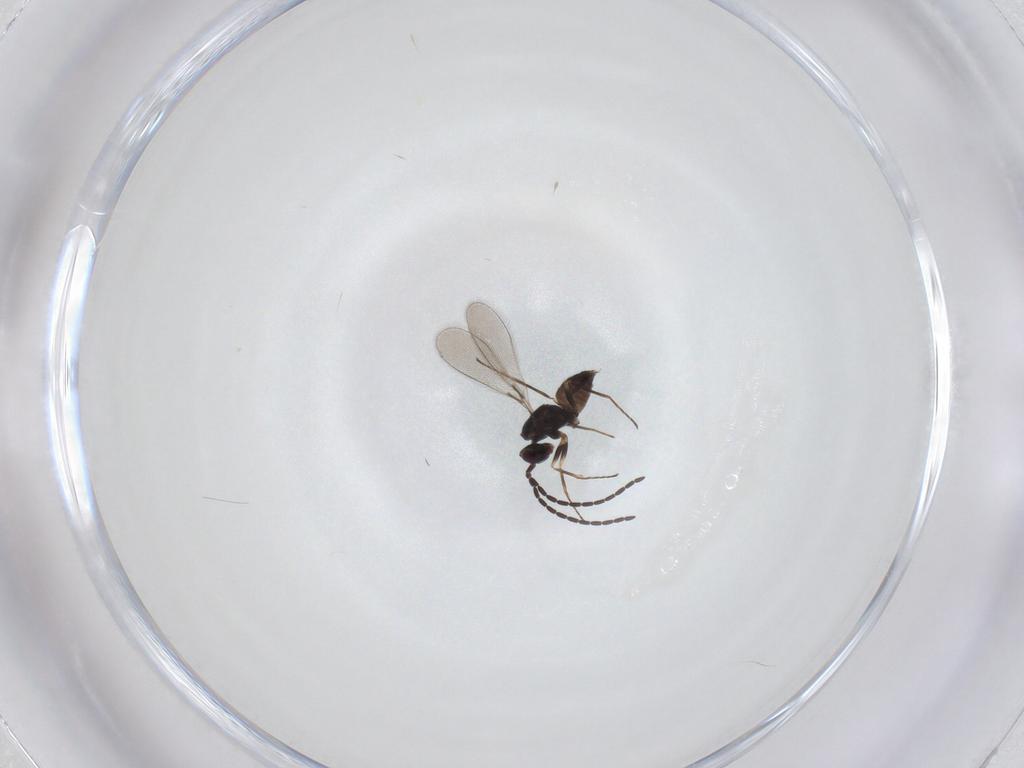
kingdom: Animalia
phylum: Arthropoda
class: Insecta
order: Hymenoptera
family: Mymaridae
